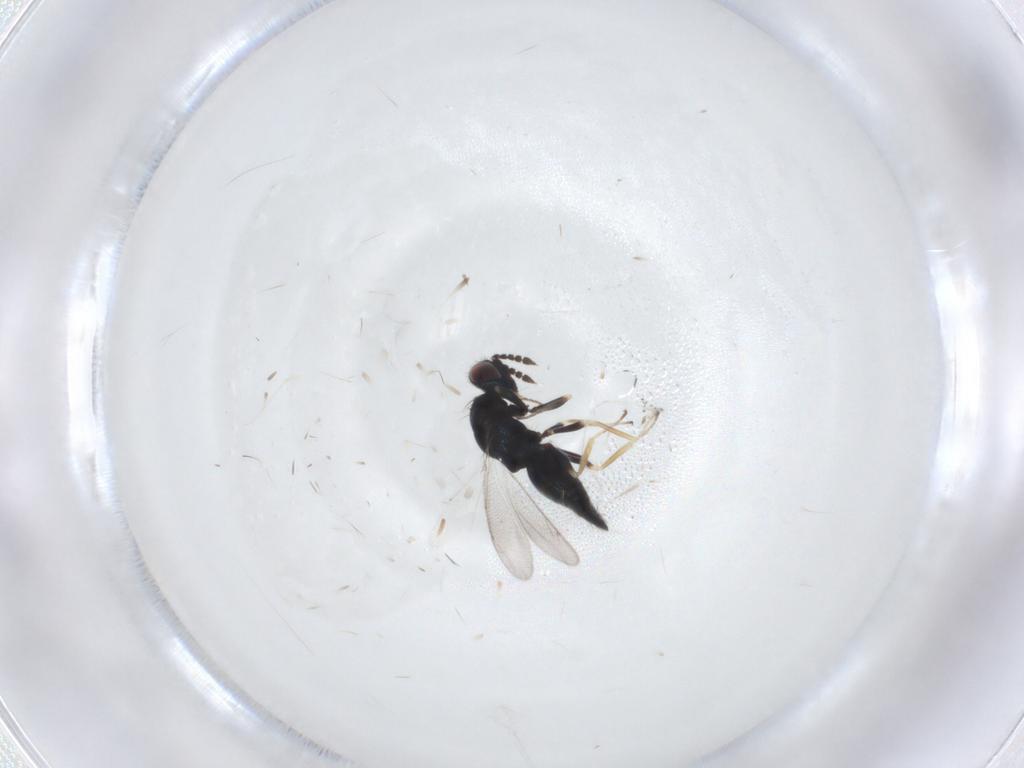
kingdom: Animalia
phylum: Arthropoda
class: Insecta
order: Hymenoptera
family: Eulophidae
